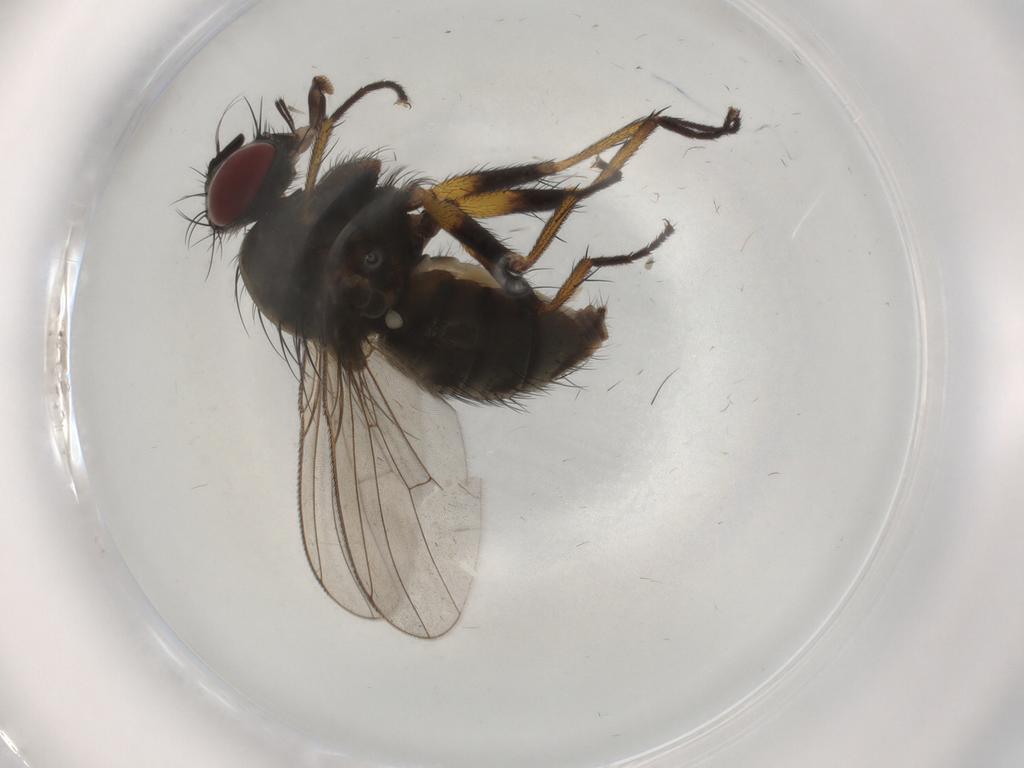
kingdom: Animalia
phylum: Arthropoda
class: Insecta
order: Diptera
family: Muscidae
